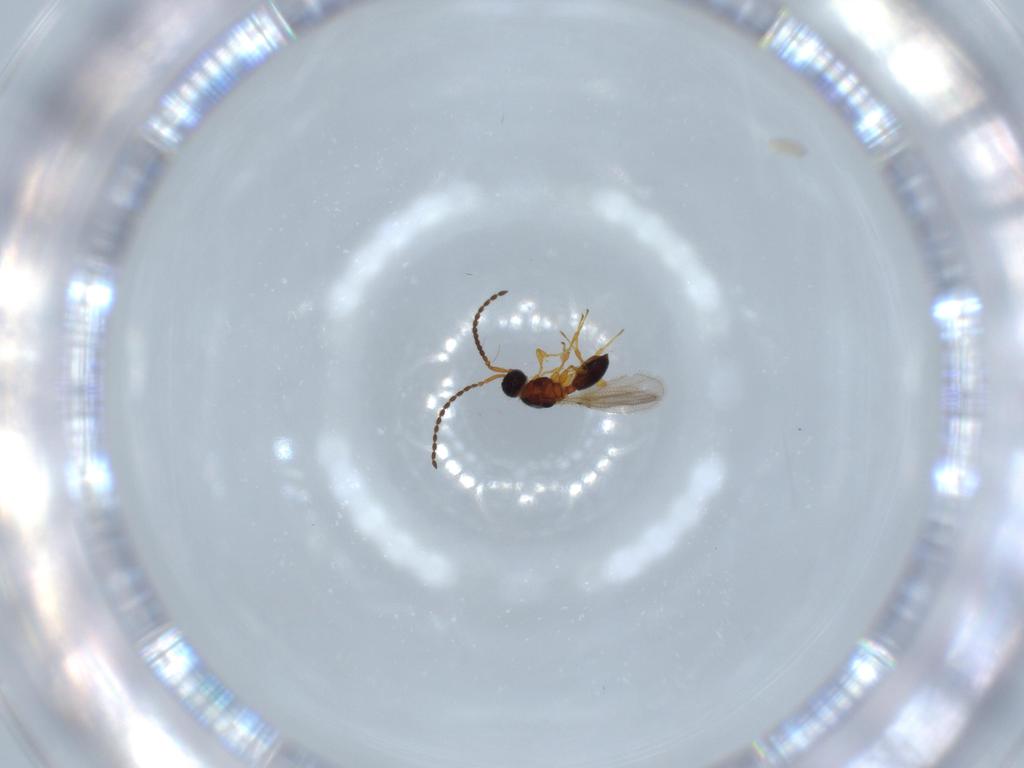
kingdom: Animalia
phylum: Arthropoda
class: Insecta
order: Hymenoptera
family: Diapriidae
